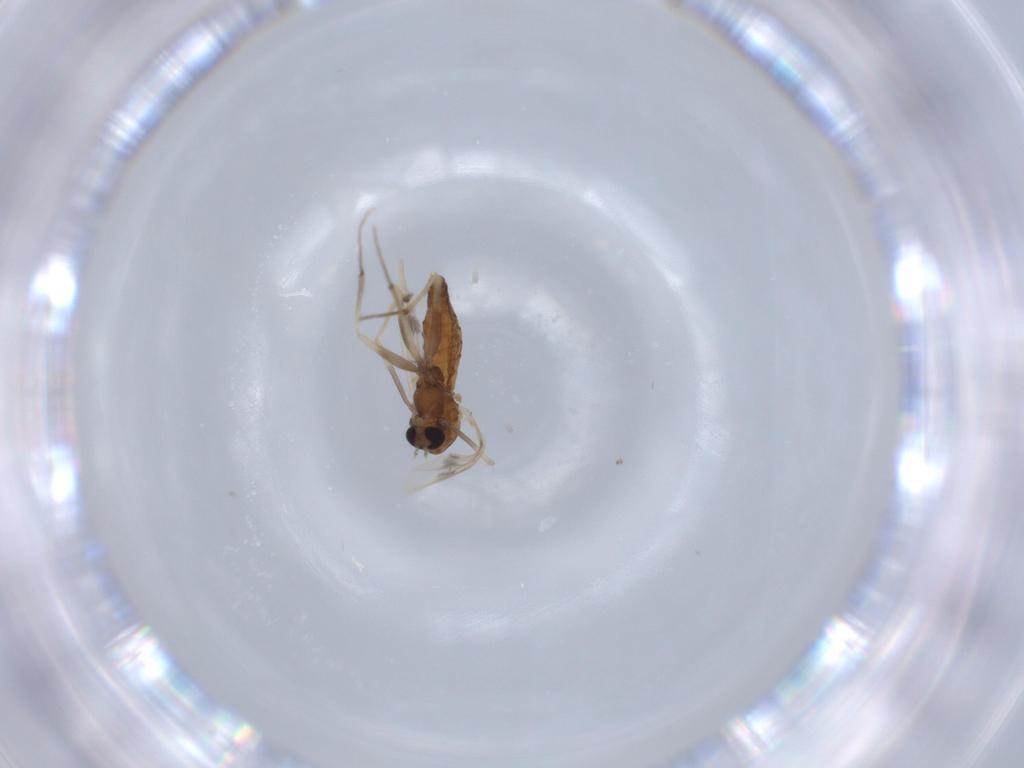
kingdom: Animalia
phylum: Arthropoda
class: Insecta
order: Diptera
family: Chironomidae
